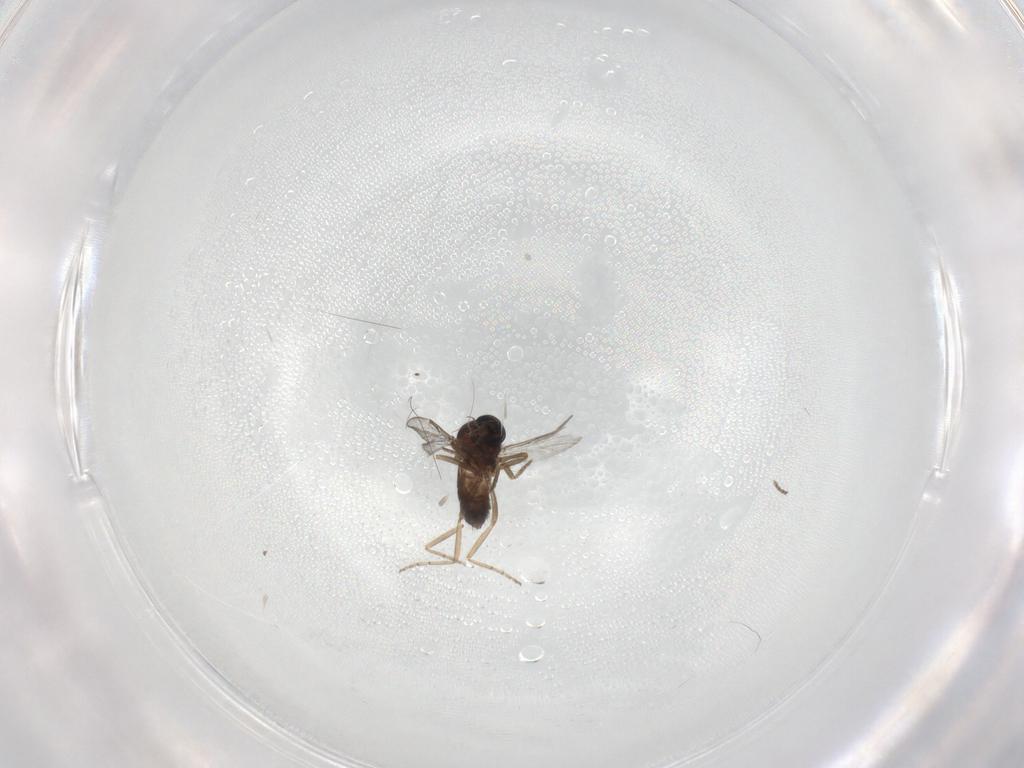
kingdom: Animalia
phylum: Arthropoda
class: Insecta
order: Diptera
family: Ceratopogonidae
